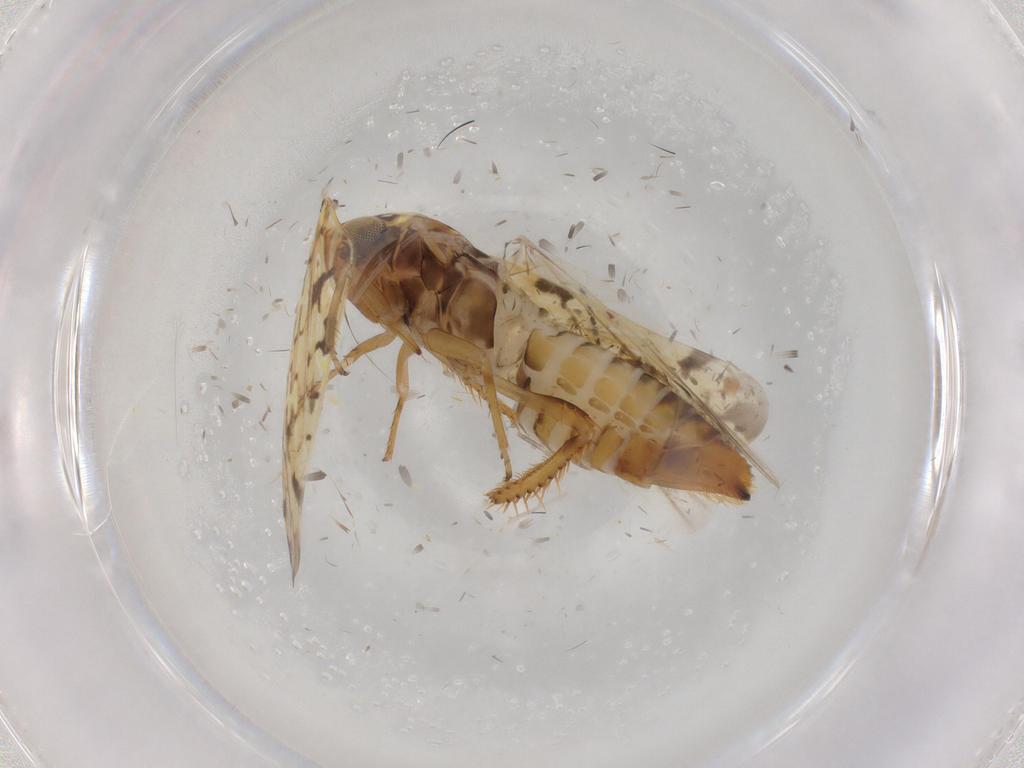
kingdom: Animalia
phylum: Arthropoda
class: Insecta
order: Hemiptera
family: Cicadellidae
